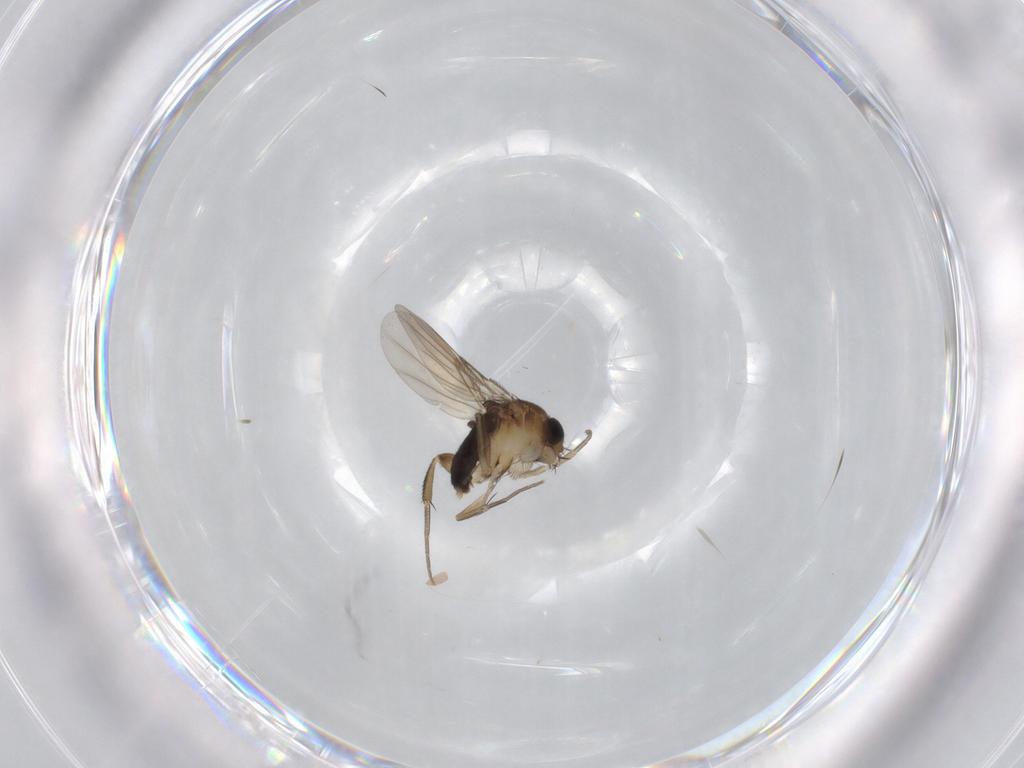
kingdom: Animalia
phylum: Arthropoda
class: Insecta
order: Diptera
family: Phoridae
